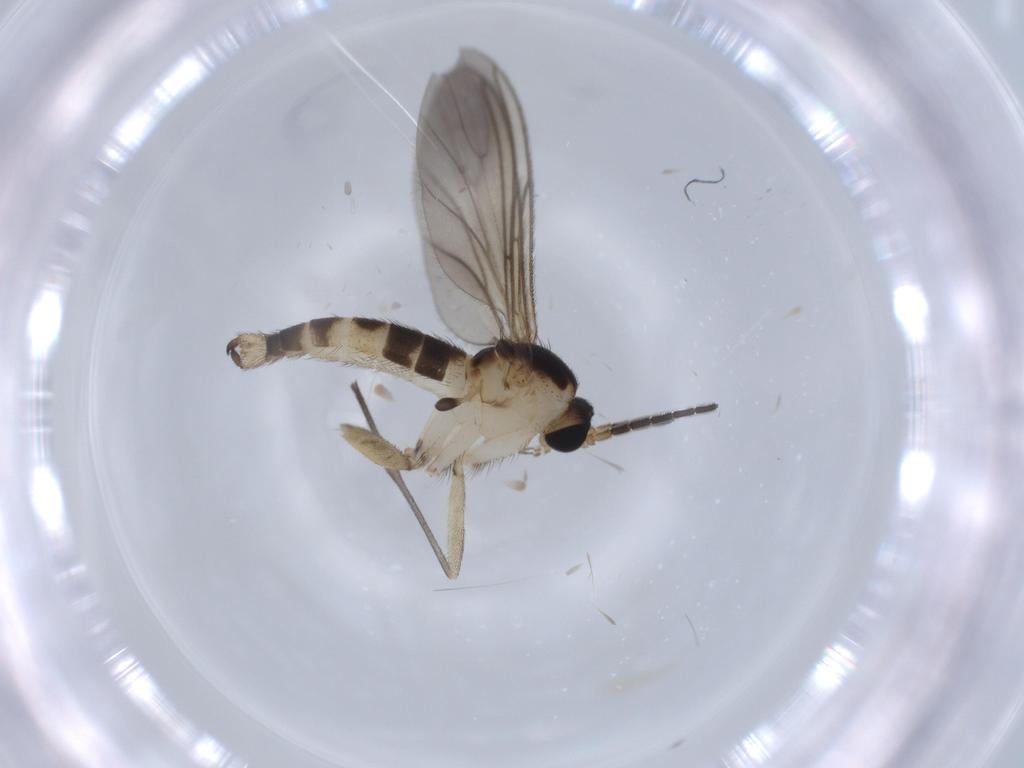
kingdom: Animalia
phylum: Arthropoda
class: Insecta
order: Diptera
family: Sciaridae
